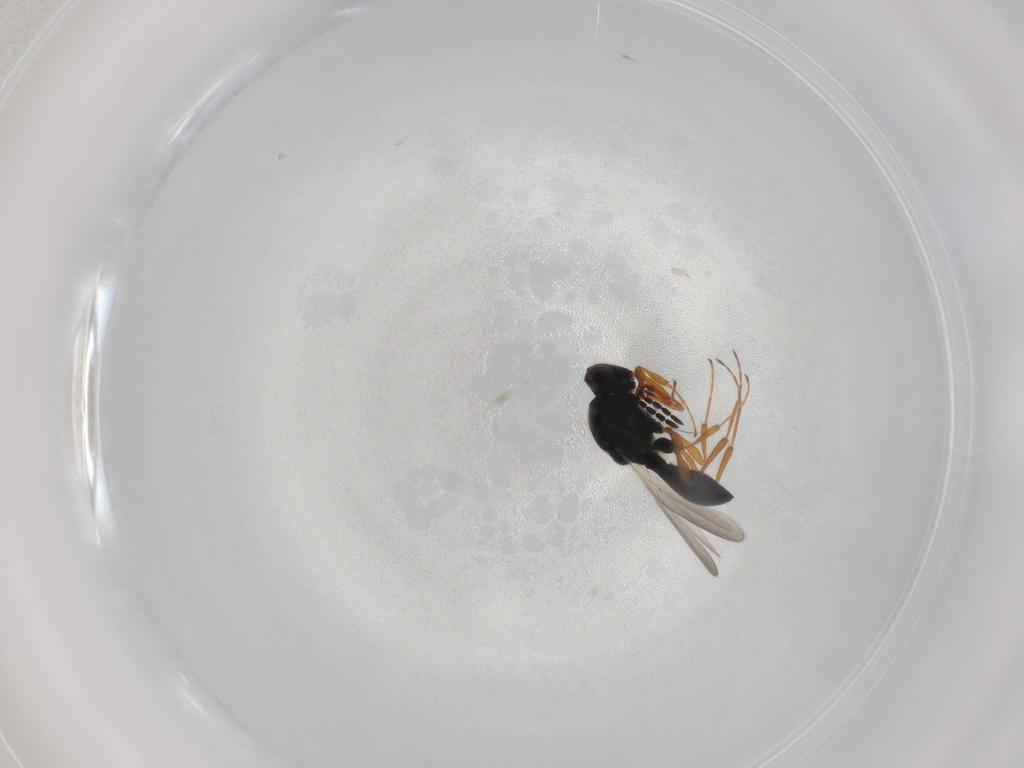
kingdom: Animalia
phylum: Arthropoda
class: Insecta
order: Hymenoptera
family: Platygastridae
